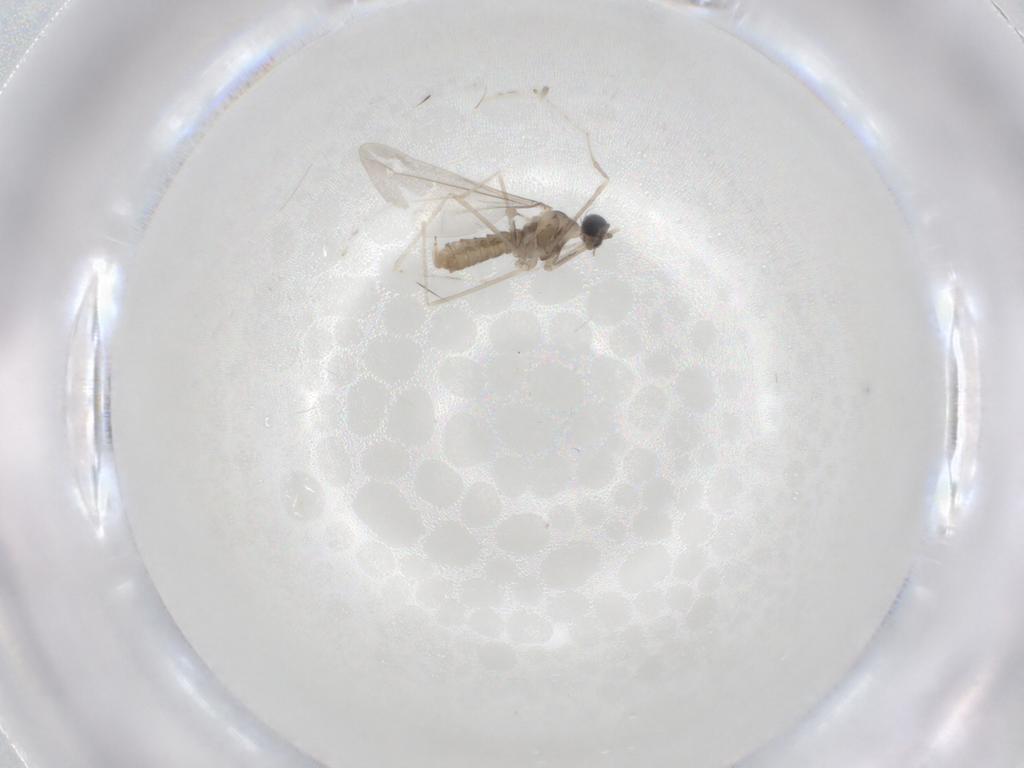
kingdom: Animalia
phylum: Arthropoda
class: Insecta
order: Diptera
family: Cecidomyiidae
